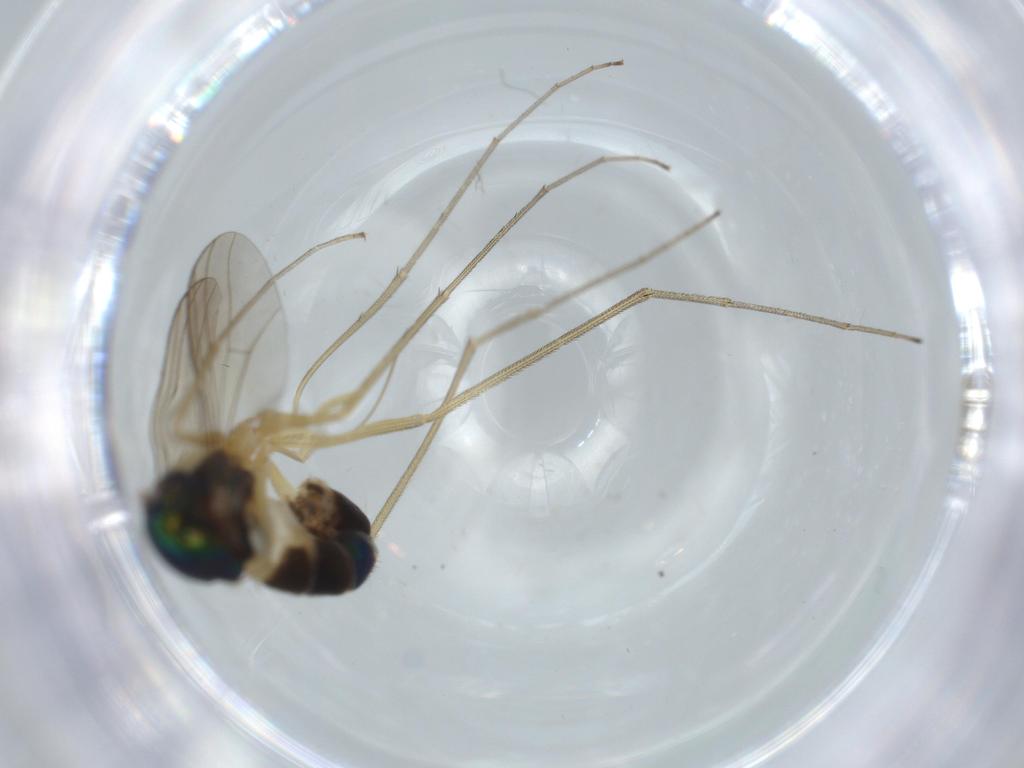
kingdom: Animalia
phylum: Arthropoda
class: Insecta
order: Diptera
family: Dolichopodidae
